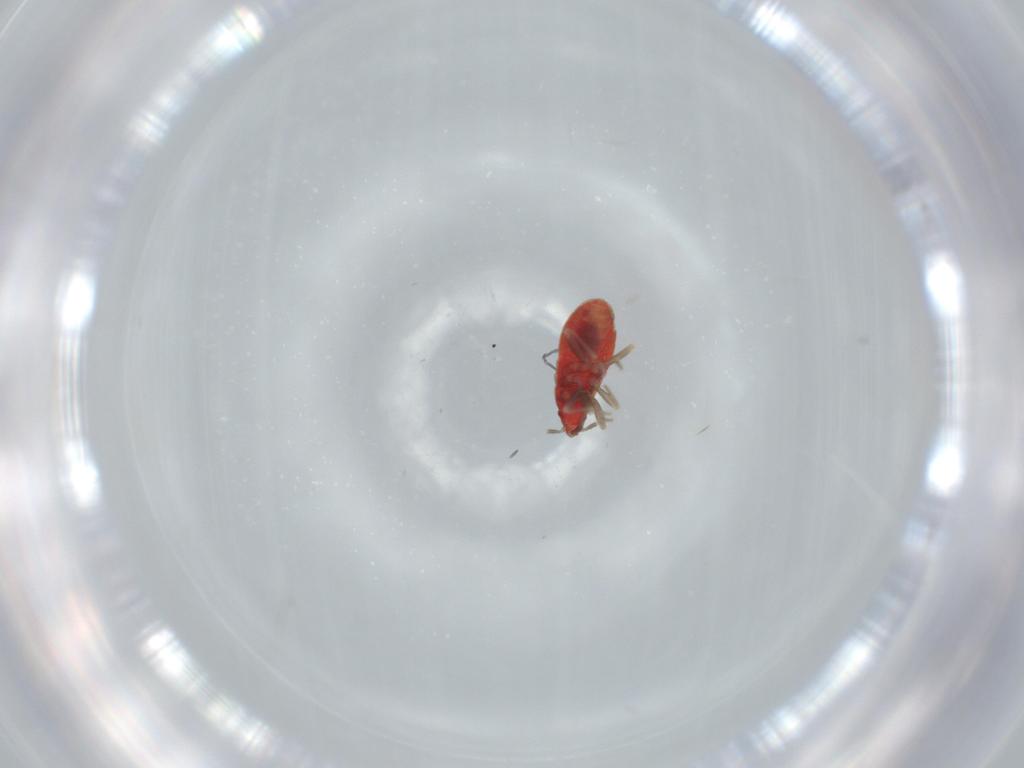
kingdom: Animalia
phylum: Arthropoda
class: Insecta
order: Hemiptera
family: Anthocoridae
